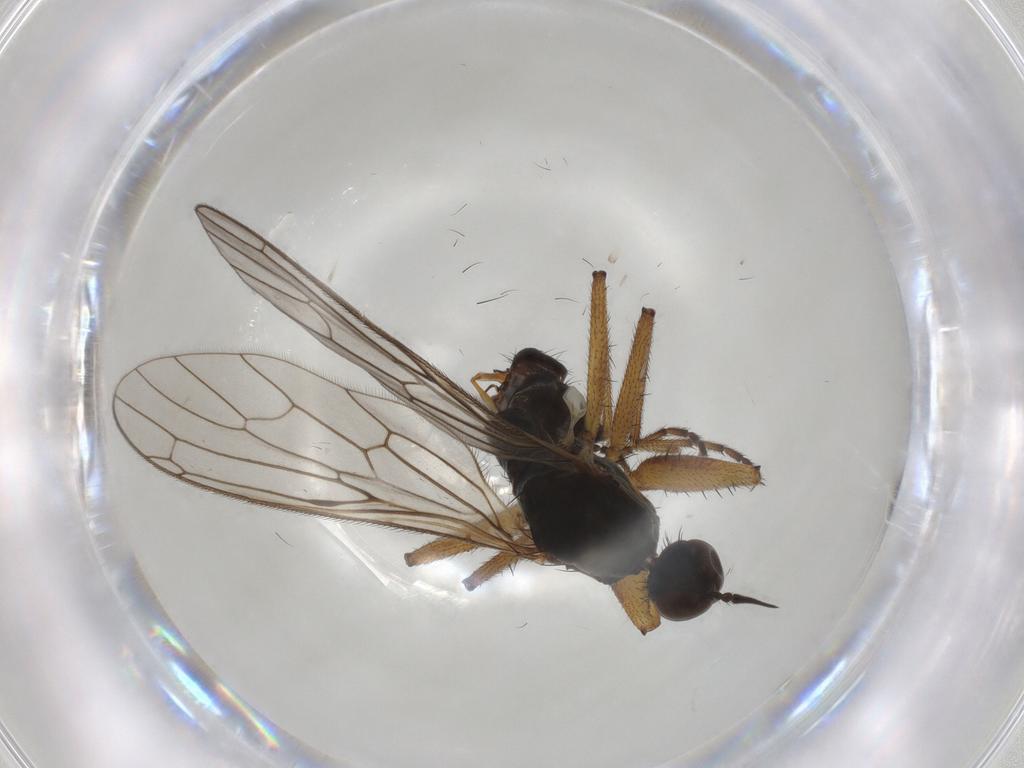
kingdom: Animalia
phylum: Arthropoda
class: Insecta
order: Diptera
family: Empididae
